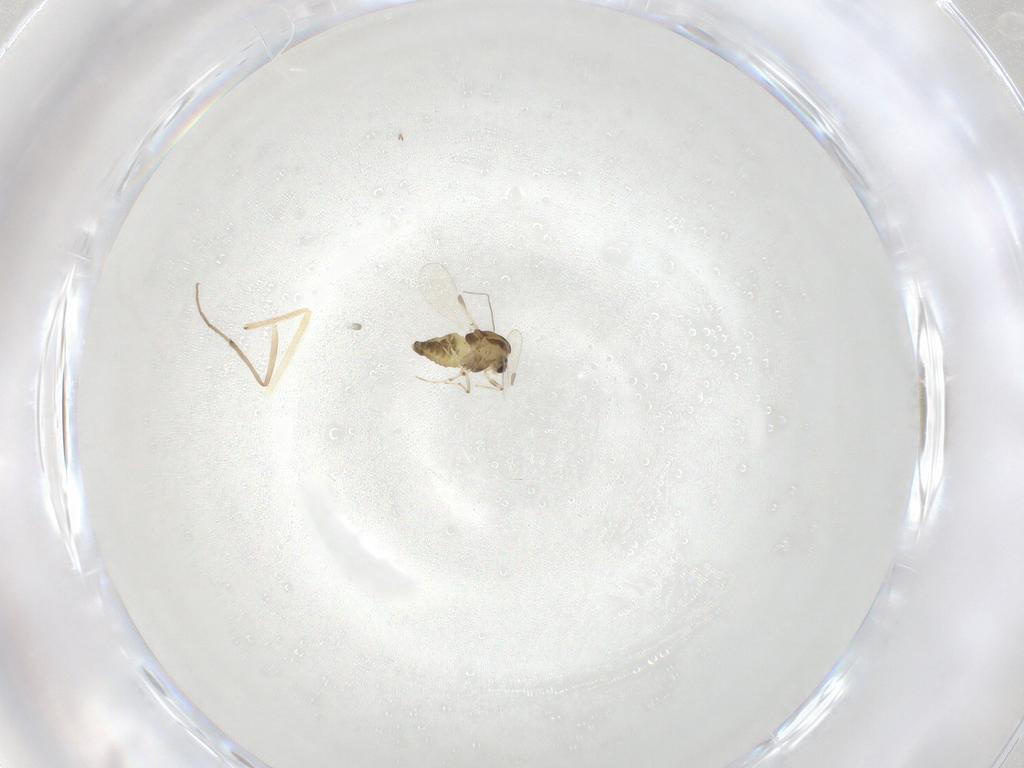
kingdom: Animalia
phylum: Arthropoda
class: Insecta
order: Diptera
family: Chironomidae
